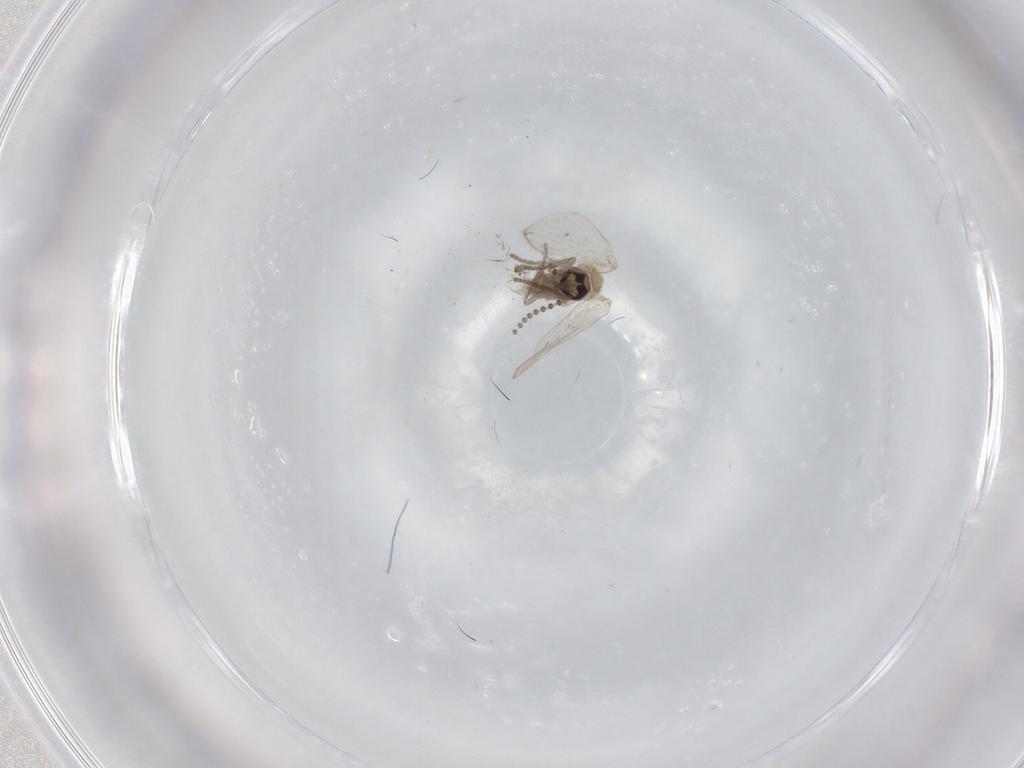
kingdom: Animalia
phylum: Arthropoda
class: Insecta
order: Diptera
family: Psychodidae
